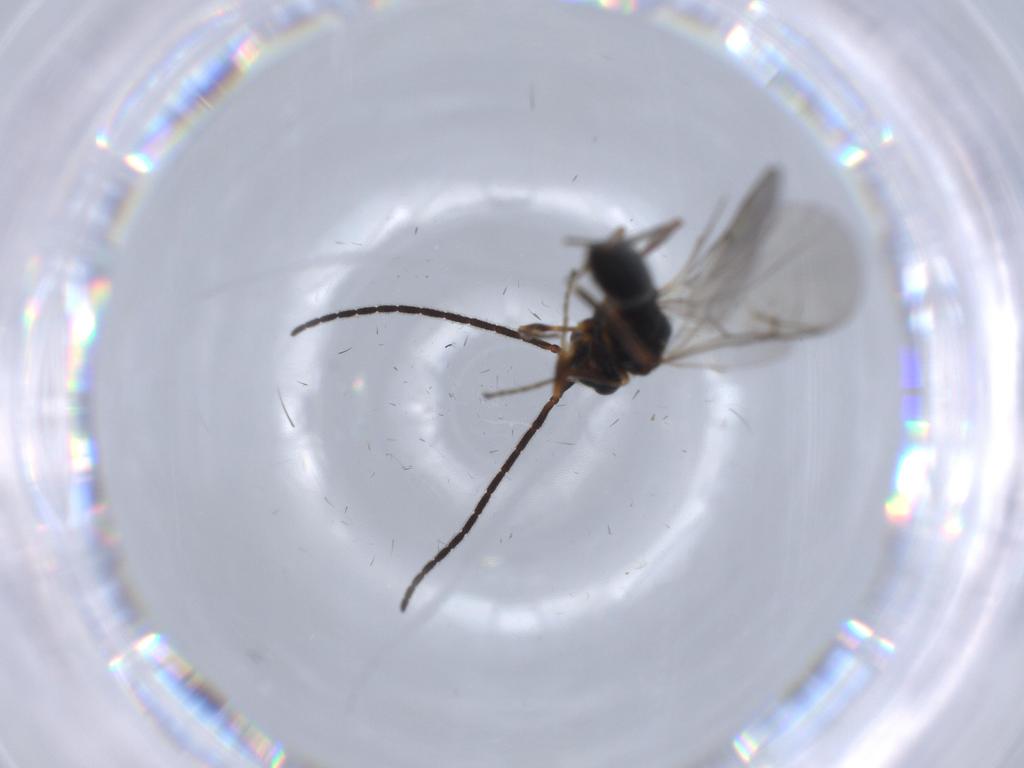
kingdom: Animalia
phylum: Arthropoda
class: Insecta
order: Hymenoptera
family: Diapriidae
